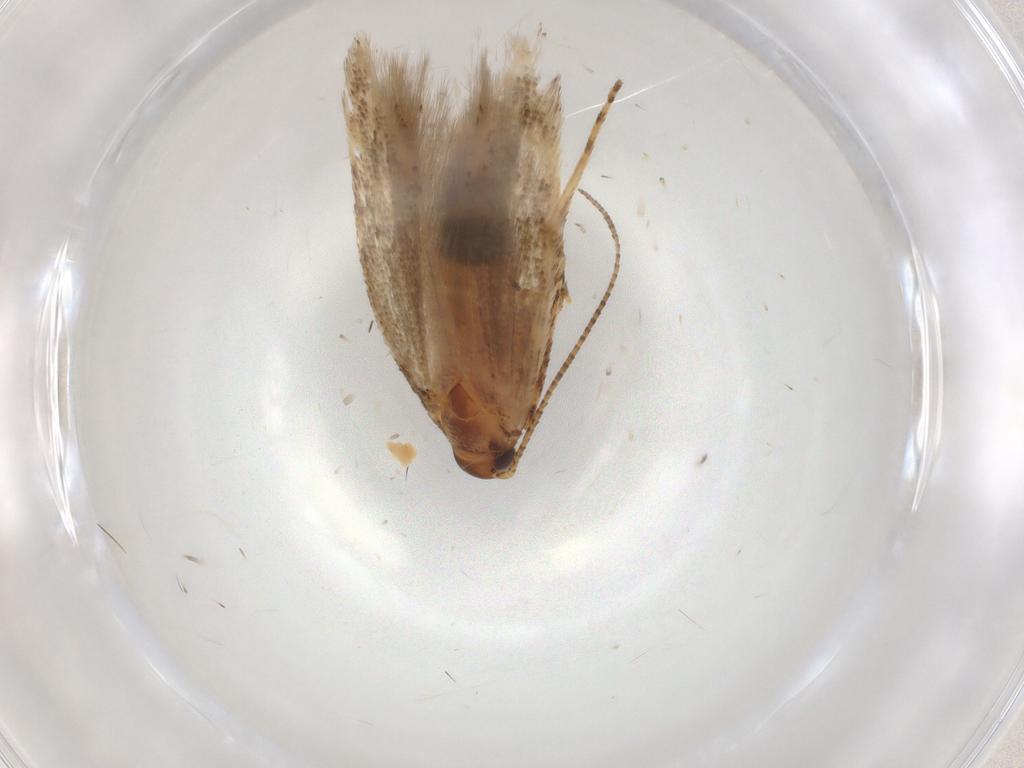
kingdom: Animalia
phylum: Arthropoda
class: Insecta
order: Lepidoptera
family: Gelechiidae
